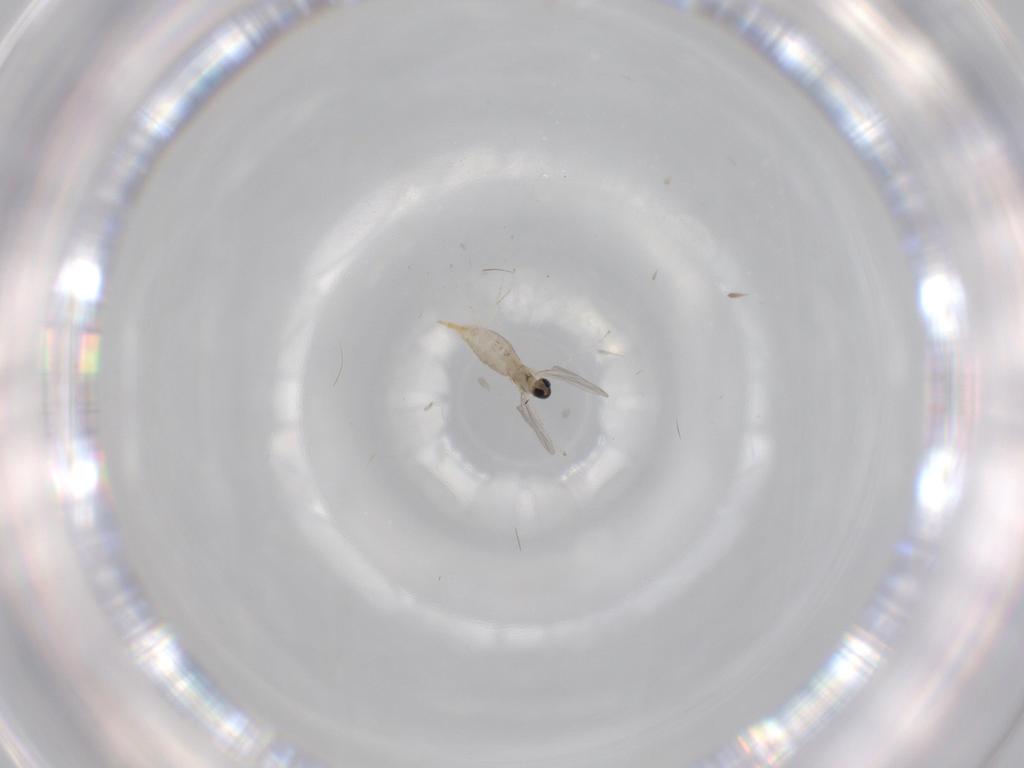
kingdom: Animalia
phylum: Arthropoda
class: Insecta
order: Diptera
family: Cecidomyiidae
